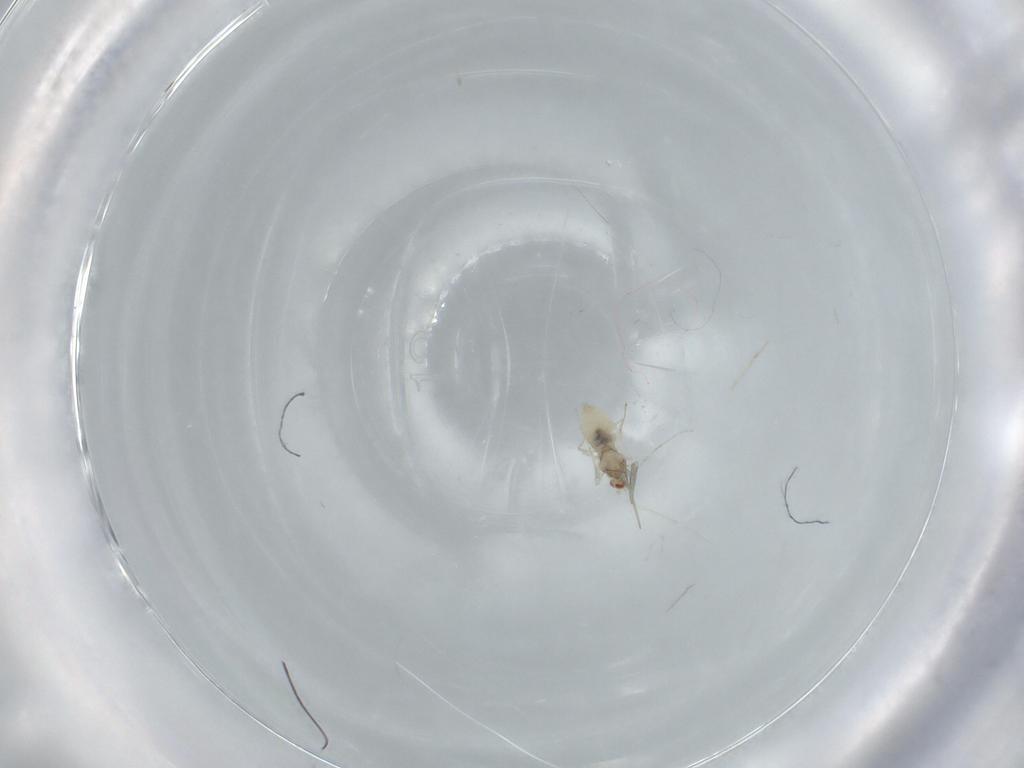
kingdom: Animalia
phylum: Arthropoda
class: Insecta
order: Diptera
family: Cecidomyiidae
